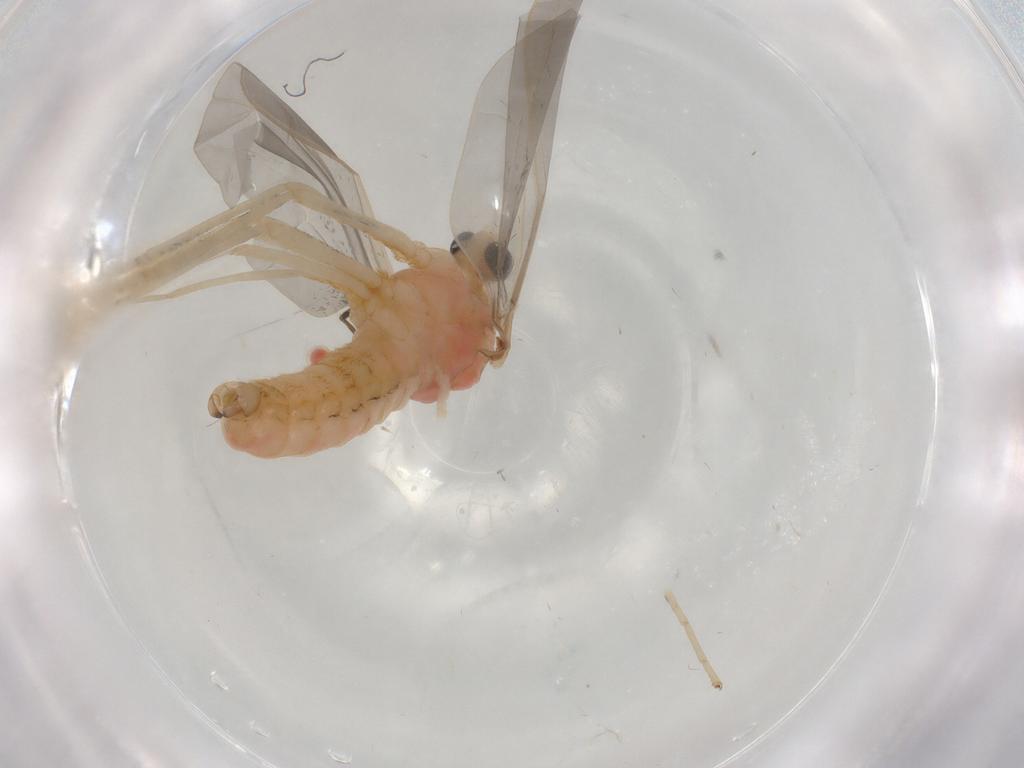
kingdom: Animalia
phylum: Arthropoda
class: Insecta
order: Diptera
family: Cecidomyiidae
